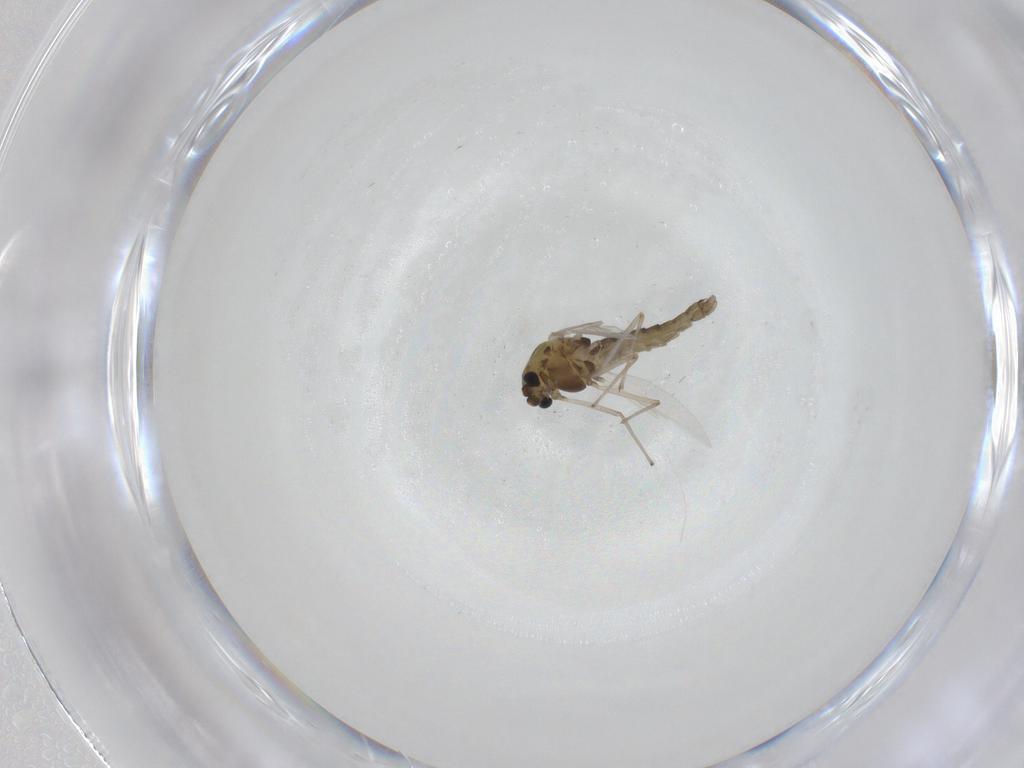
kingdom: Animalia
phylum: Arthropoda
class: Insecta
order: Diptera
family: Chironomidae
